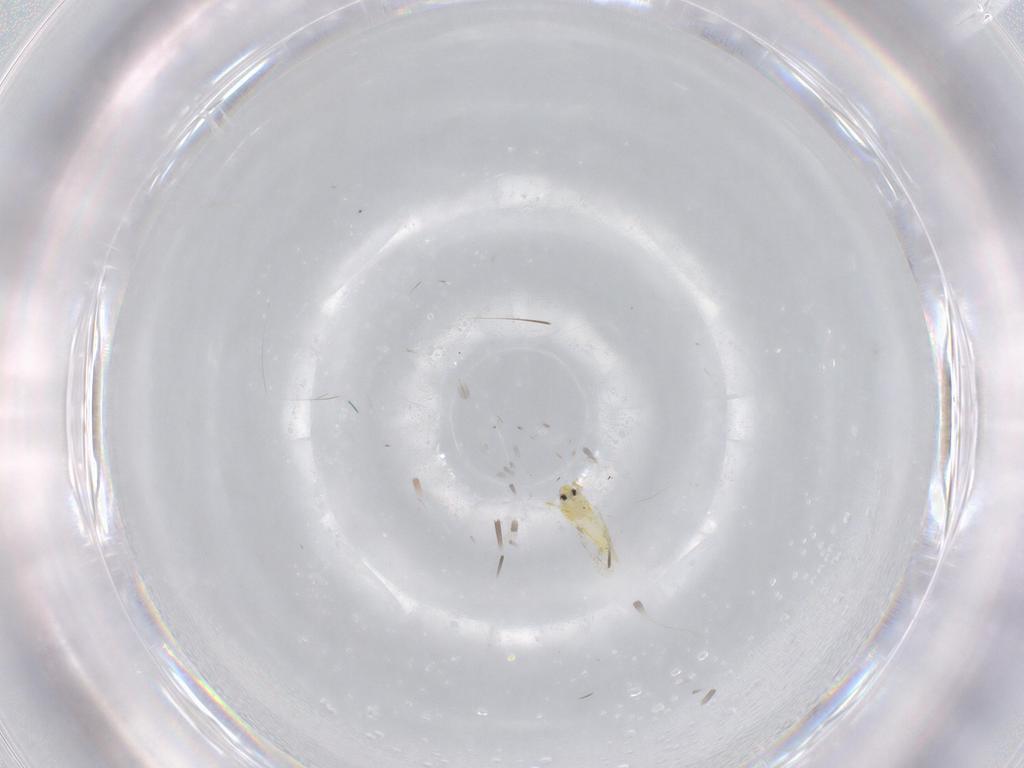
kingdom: Animalia
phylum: Arthropoda
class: Insecta
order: Hemiptera
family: Aleyrodidae
